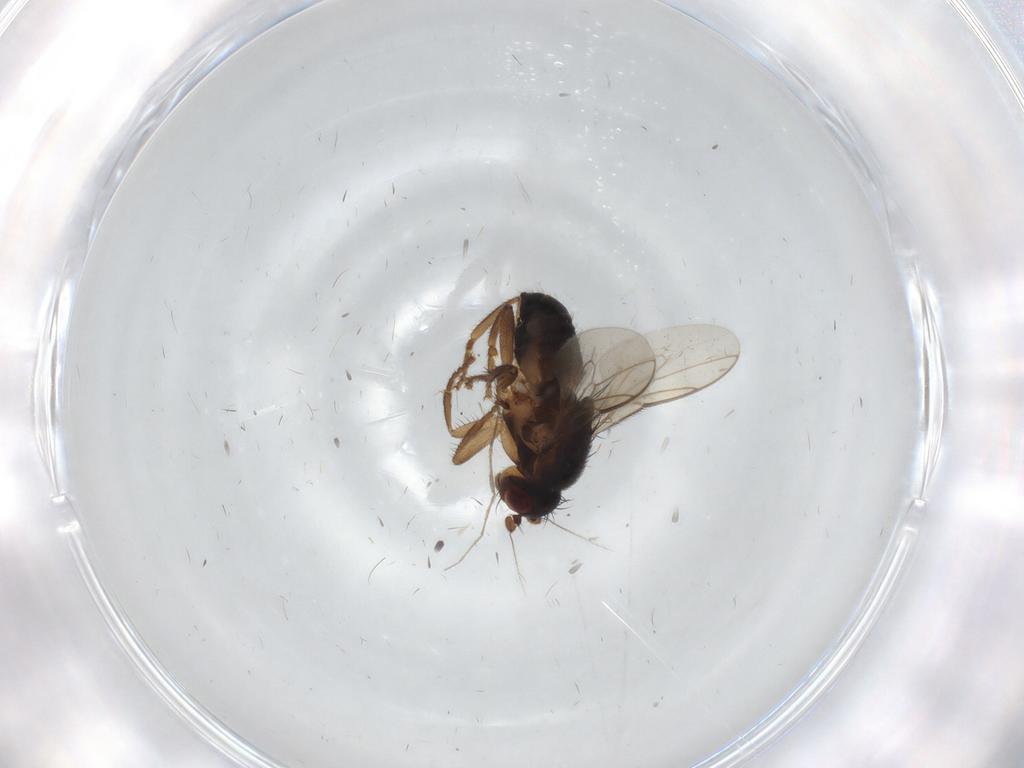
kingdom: Animalia
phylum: Arthropoda
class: Insecta
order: Diptera
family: Sphaeroceridae
